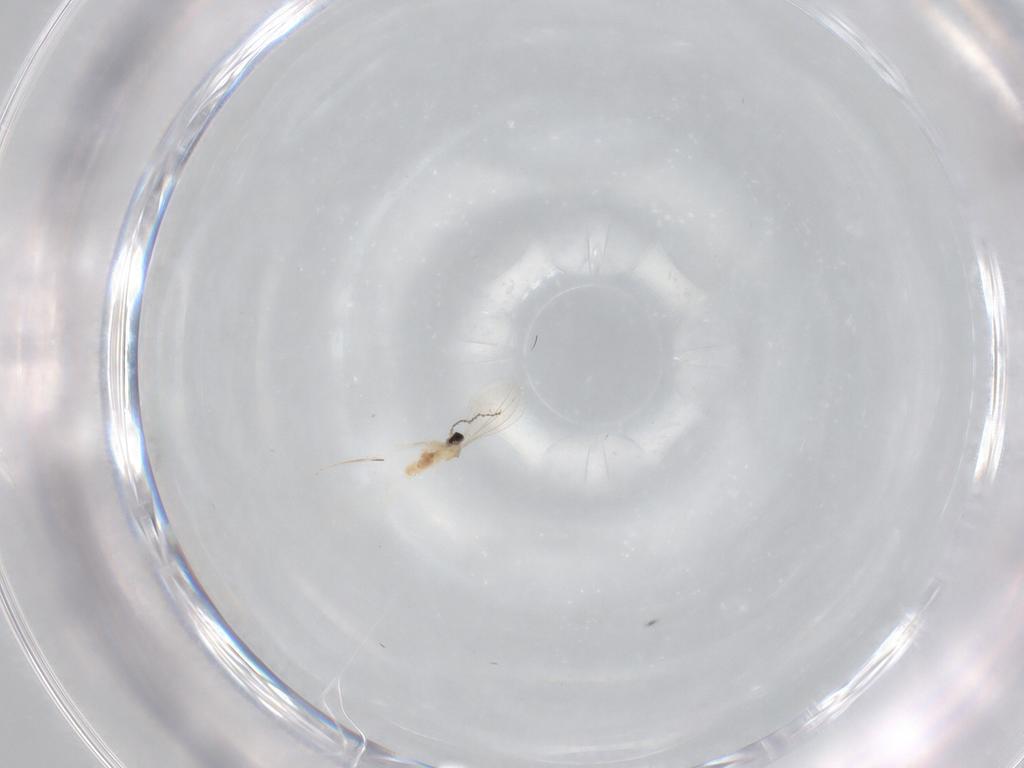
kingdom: Animalia
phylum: Arthropoda
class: Insecta
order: Diptera
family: Cecidomyiidae
